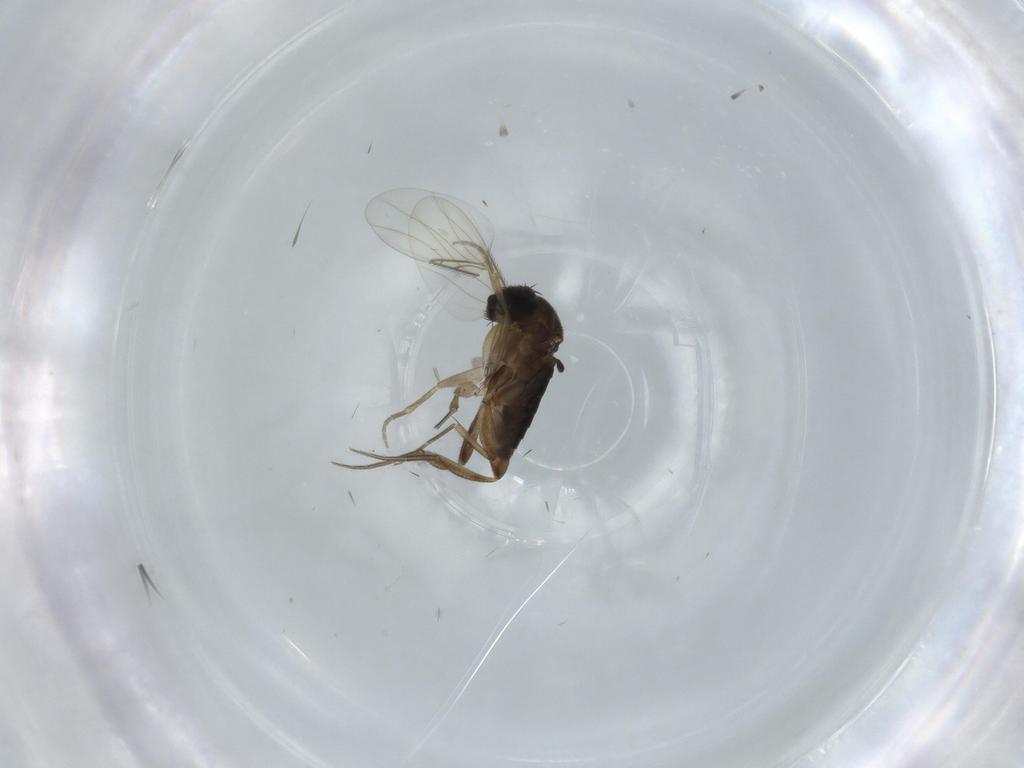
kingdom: Animalia
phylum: Arthropoda
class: Insecta
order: Diptera
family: Phoridae
